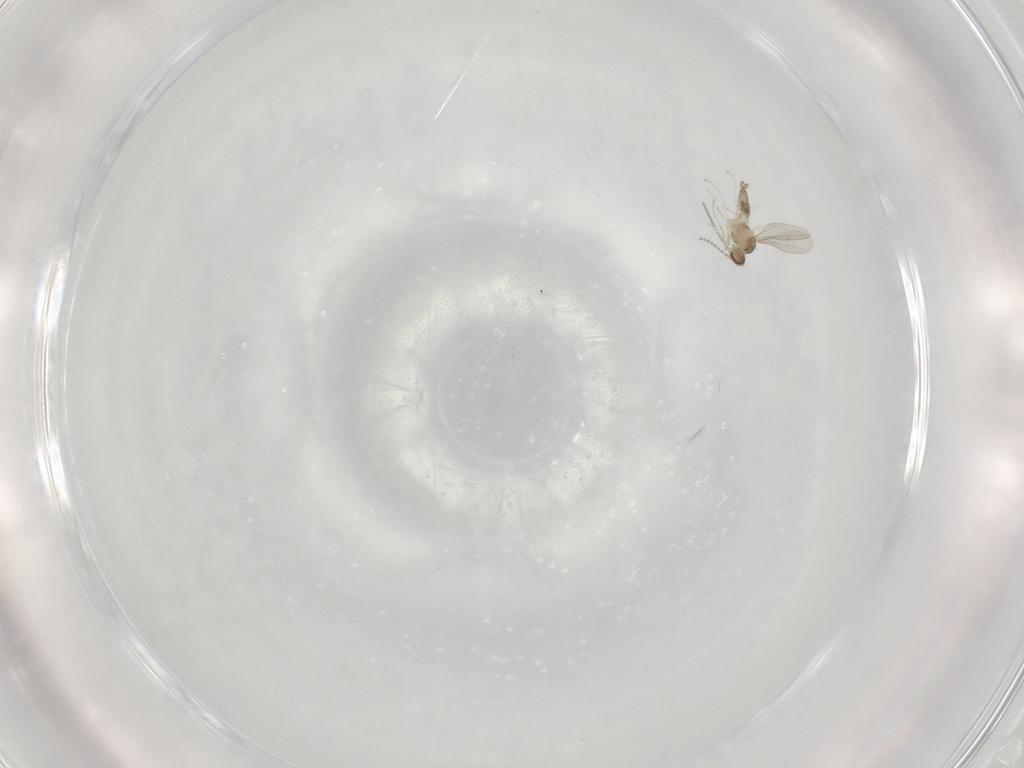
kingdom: Animalia
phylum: Arthropoda
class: Insecta
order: Diptera
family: Cecidomyiidae
